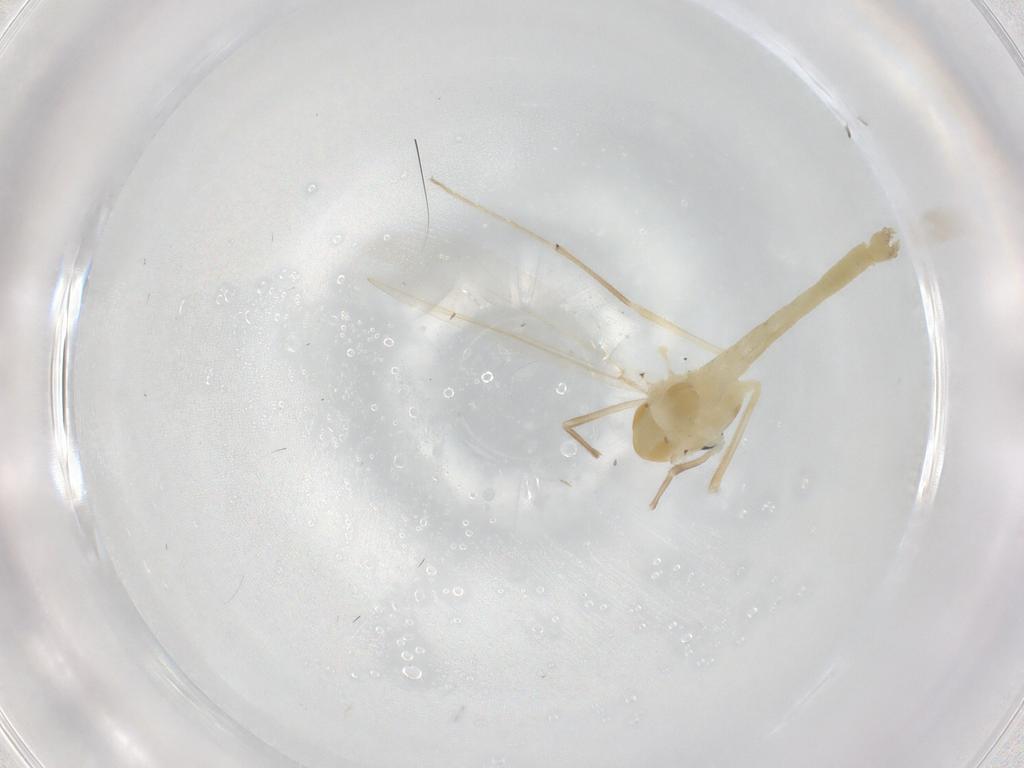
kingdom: Animalia
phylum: Arthropoda
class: Insecta
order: Diptera
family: Chironomidae
